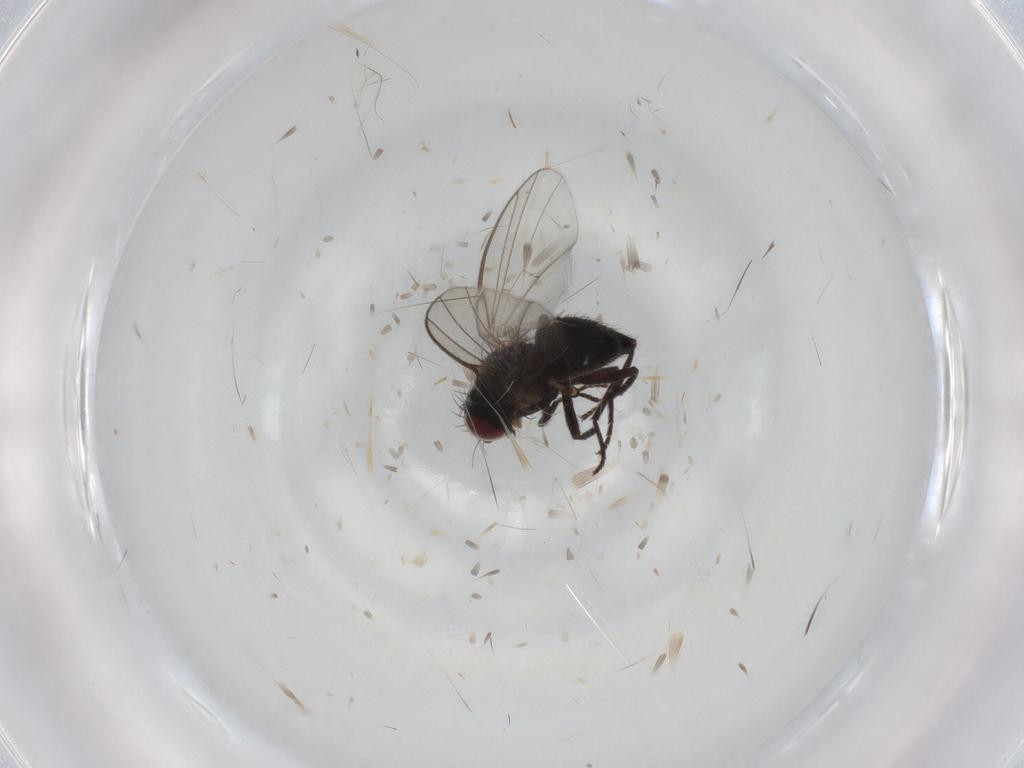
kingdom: Animalia
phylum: Arthropoda
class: Insecta
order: Diptera
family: Agromyzidae
